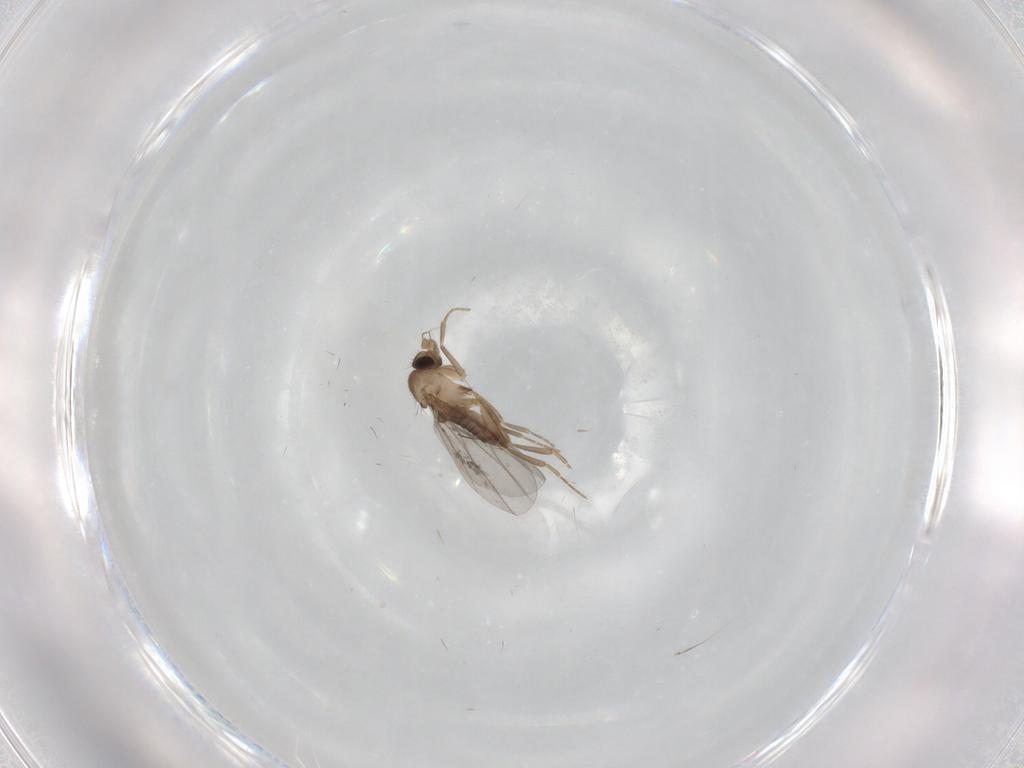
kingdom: Animalia
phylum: Arthropoda
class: Insecta
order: Diptera
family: Cecidomyiidae
